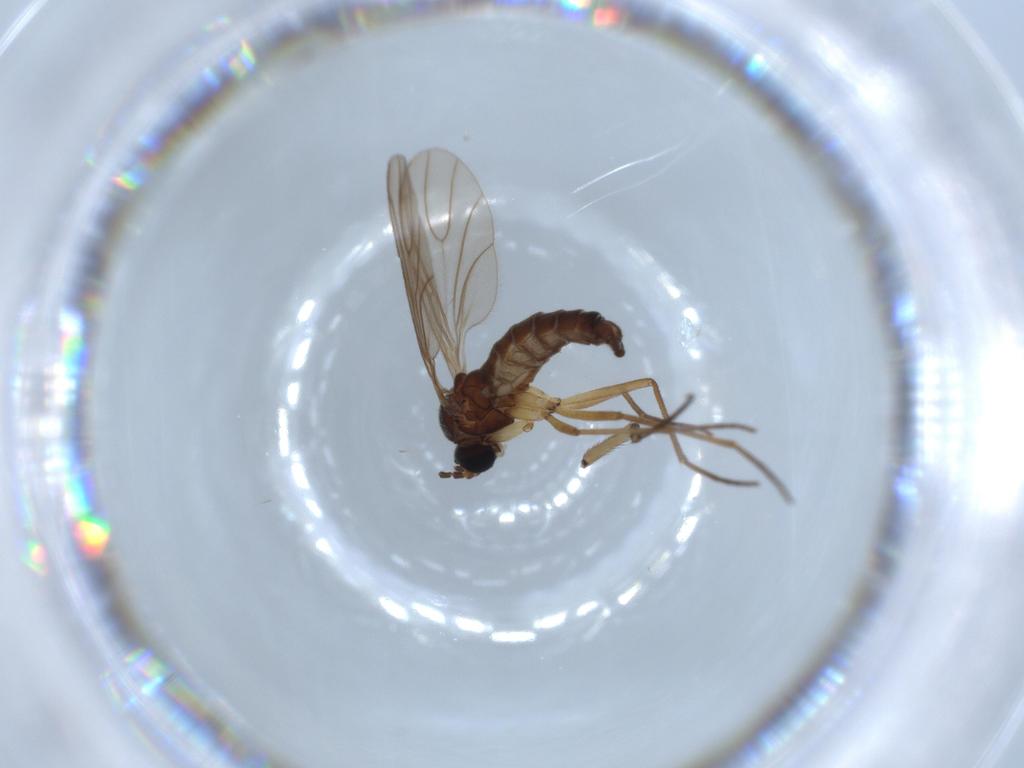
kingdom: Animalia
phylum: Arthropoda
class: Insecta
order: Diptera
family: Sciaridae
